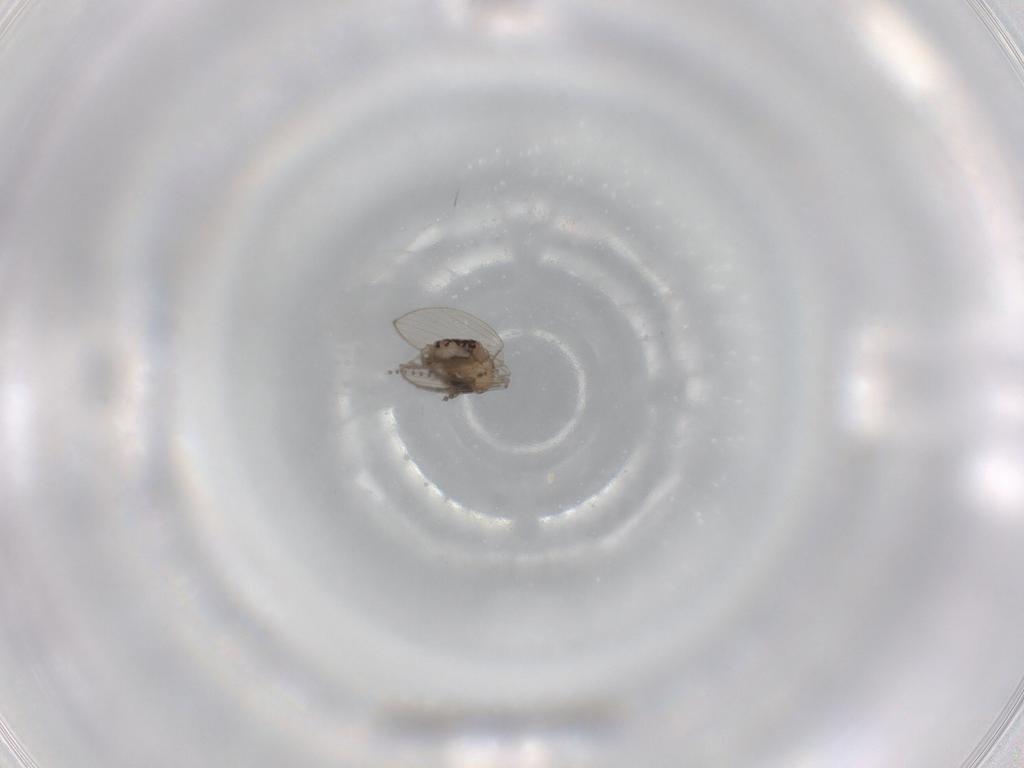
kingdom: Animalia
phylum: Arthropoda
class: Insecta
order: Diptera
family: Psychodidae
